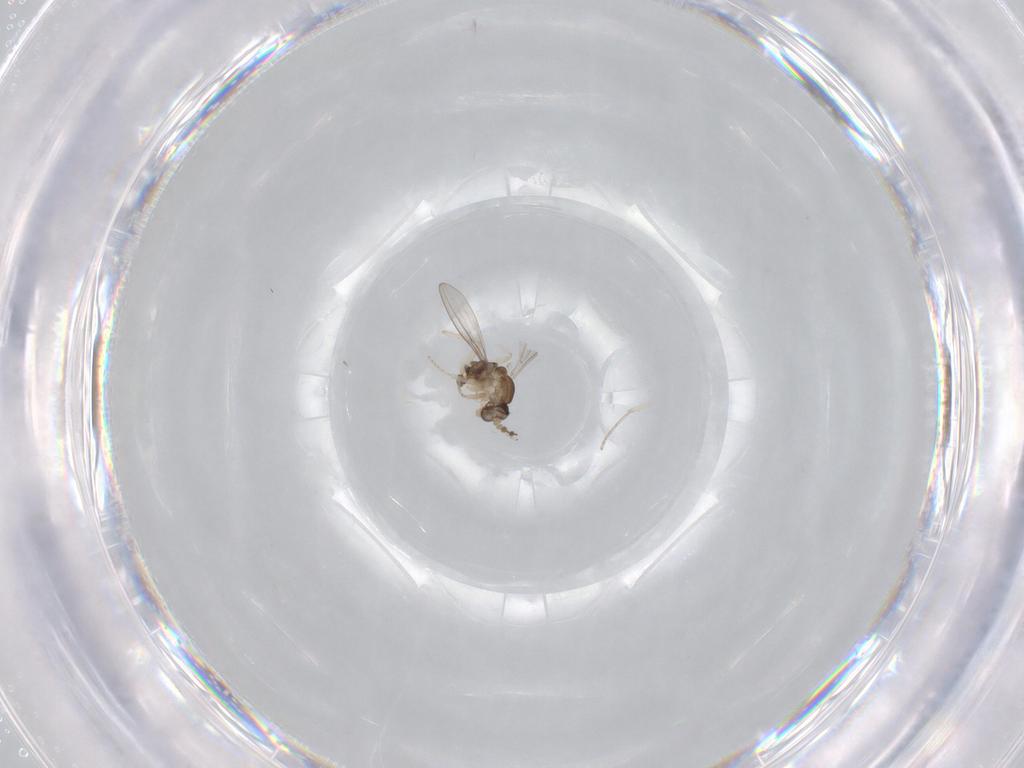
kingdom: Animalia
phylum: Arthropoda
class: Insecta
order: Diptera
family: Cecidomyiidae
